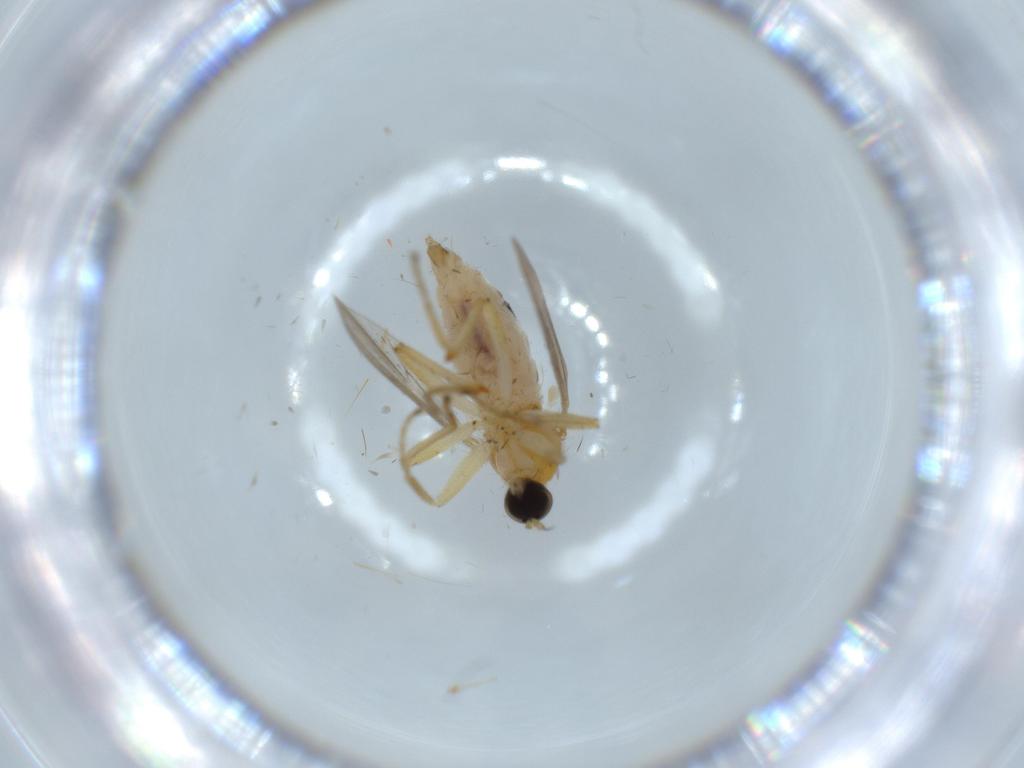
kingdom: Animalia
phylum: Arthropoda
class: Insecta
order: Diptera
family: Hybotidae
